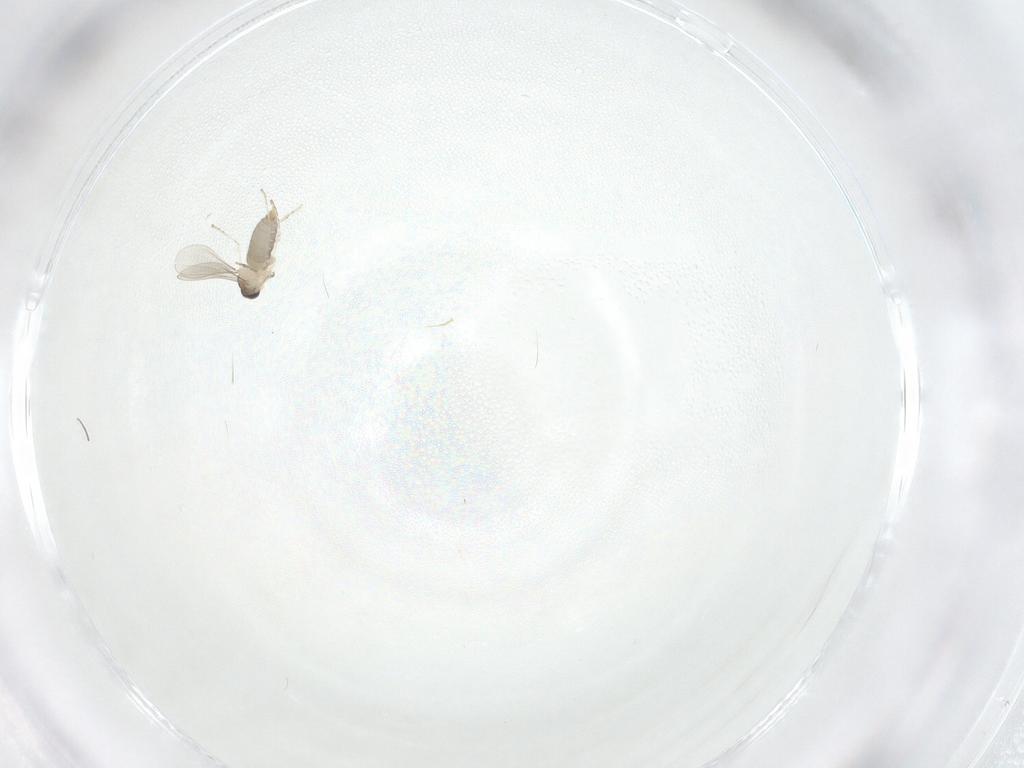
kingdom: Animalia
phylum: Arthropoda
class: Insecta
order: Diptera
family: Cecidomyiidae
